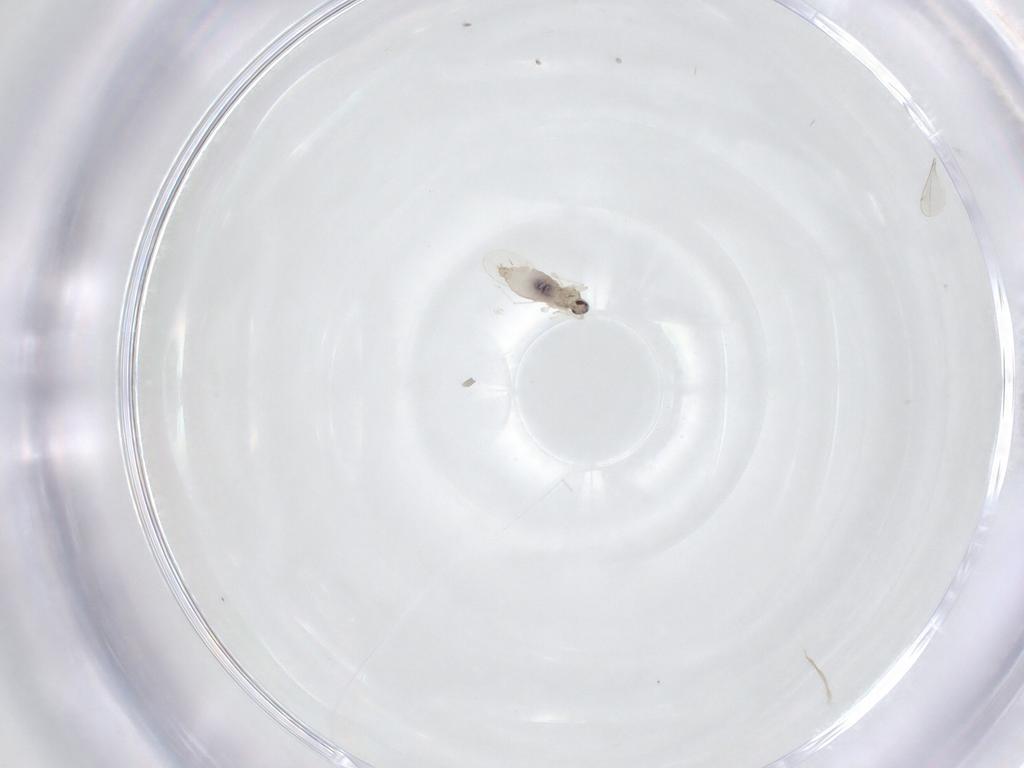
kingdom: Animalia
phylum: Arthropoda
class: Insecta
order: Diptera
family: Cecidomyiidae
